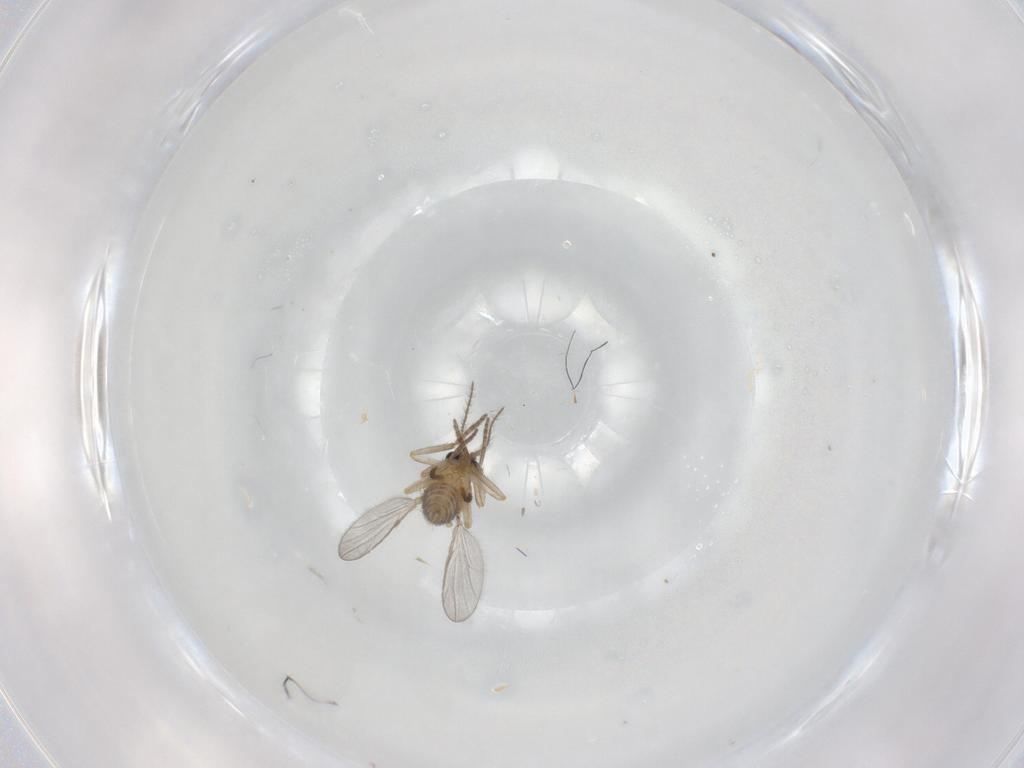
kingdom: Animalia
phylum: Arthropoda
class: Insecta
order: Diptera
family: Ceratopogonidae
